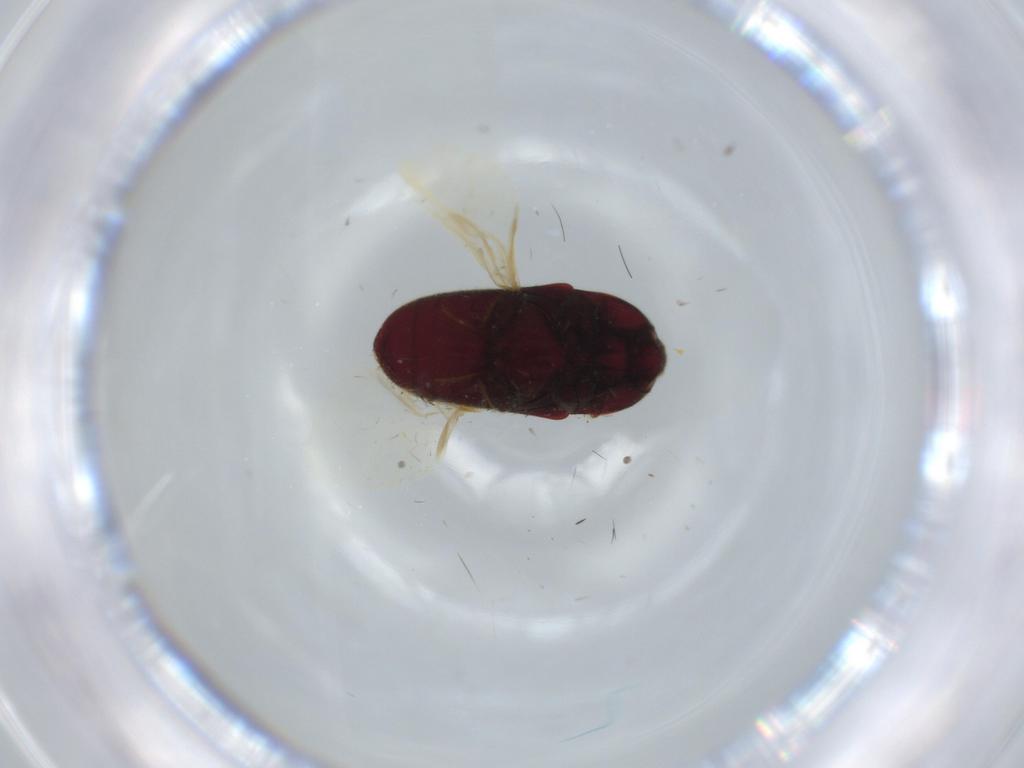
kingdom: Animalia
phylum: Arthropoda
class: Insecta
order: Coleoptera
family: Throscidae
